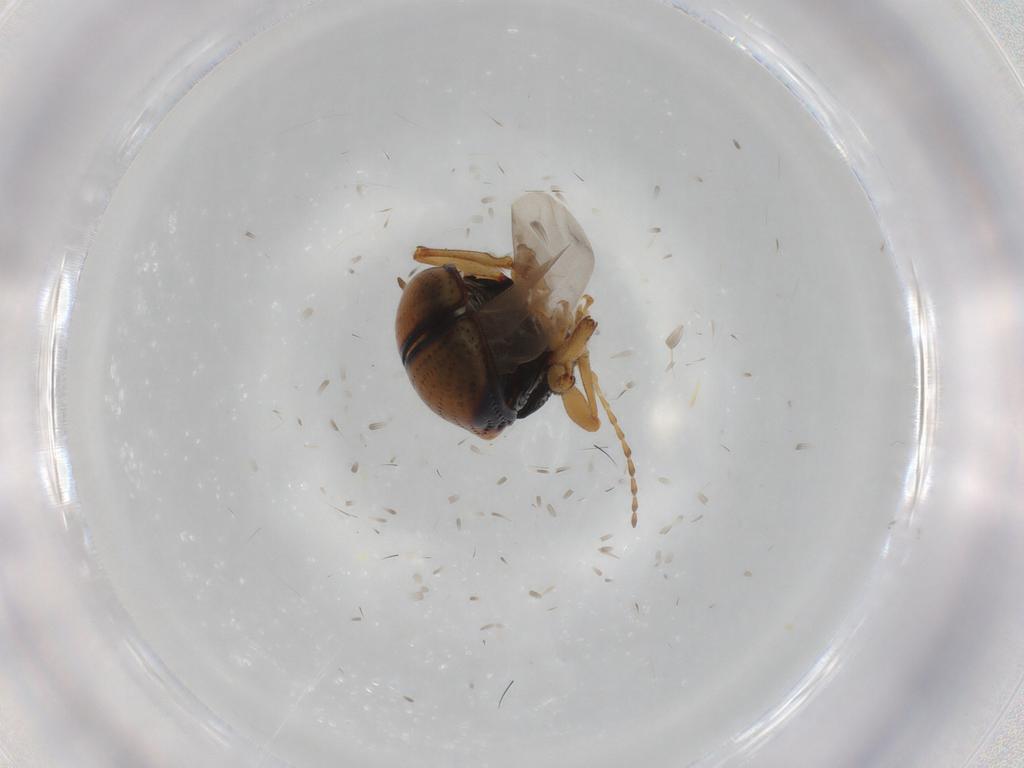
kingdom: Animalia
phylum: Arthropoda
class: Insecta
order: Coleoptera
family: Chrysomelidae
